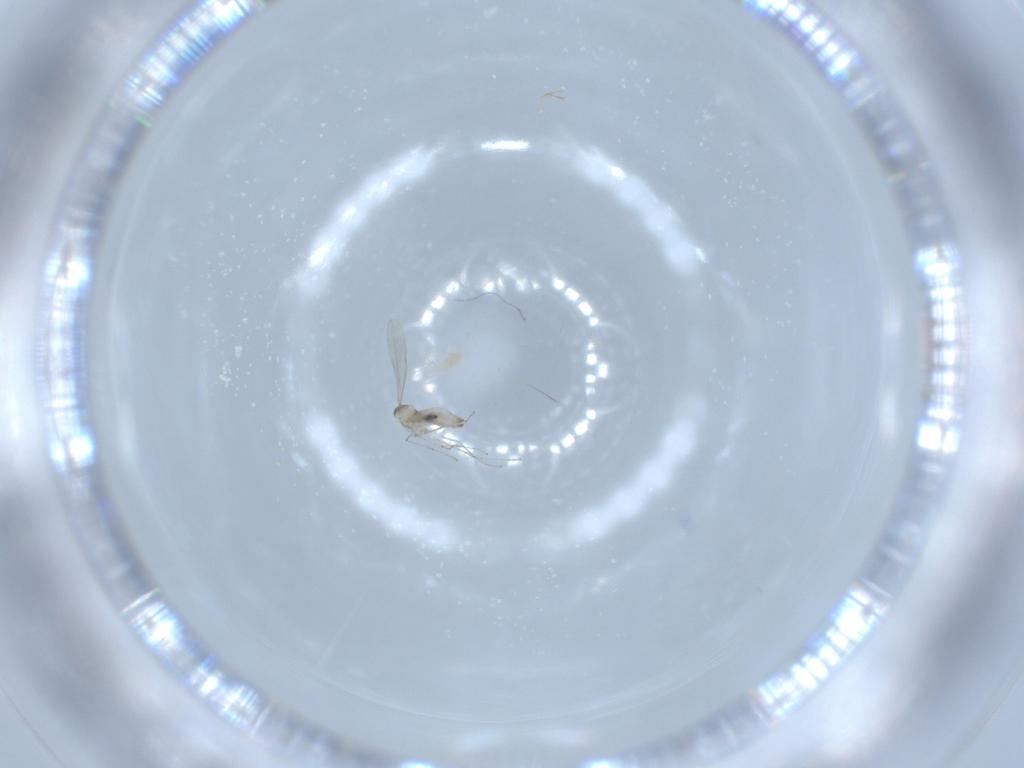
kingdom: Animalia
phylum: Arthropoda
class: Insecta
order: Diptera
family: Cecidomyiidae
